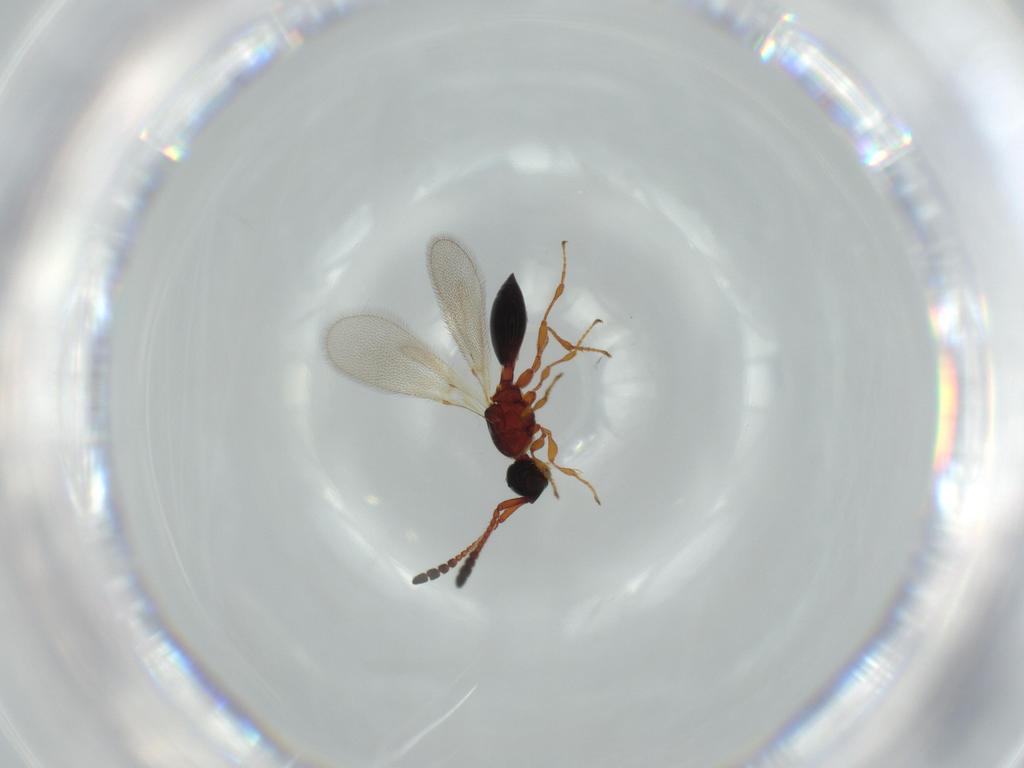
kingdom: Animalia
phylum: Arthropoda
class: Insecta
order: Hymenoptera
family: Diapriidae
